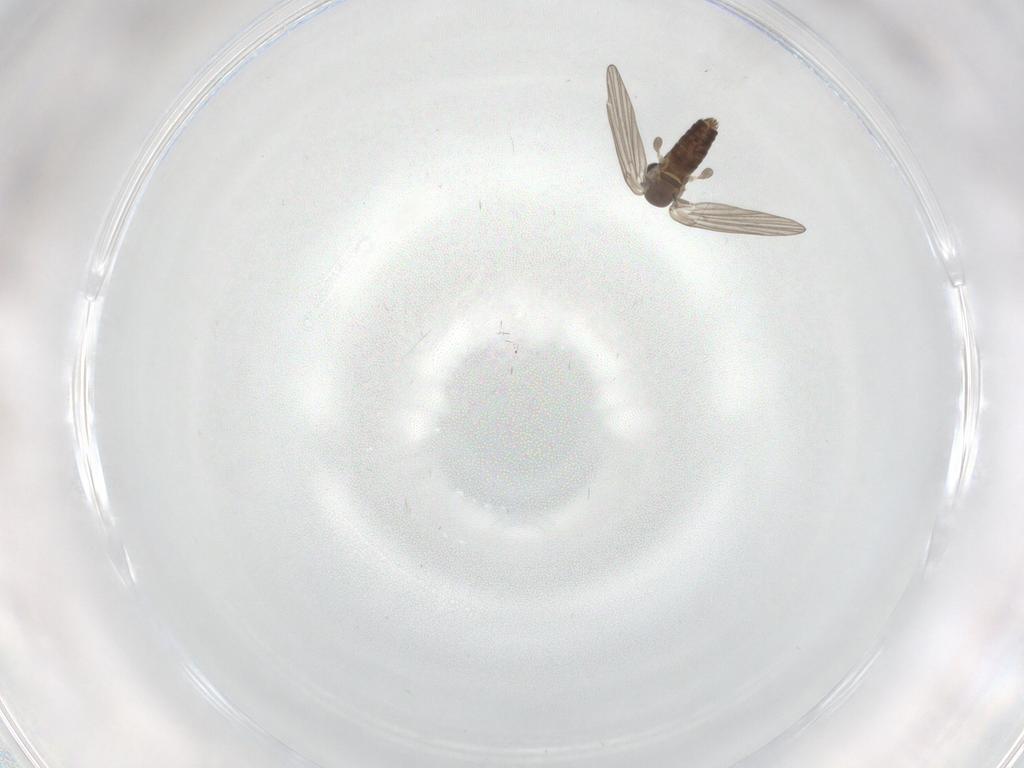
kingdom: Animalia
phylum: Arthropoda
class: Insecta
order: Diptera
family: Psychodidae
